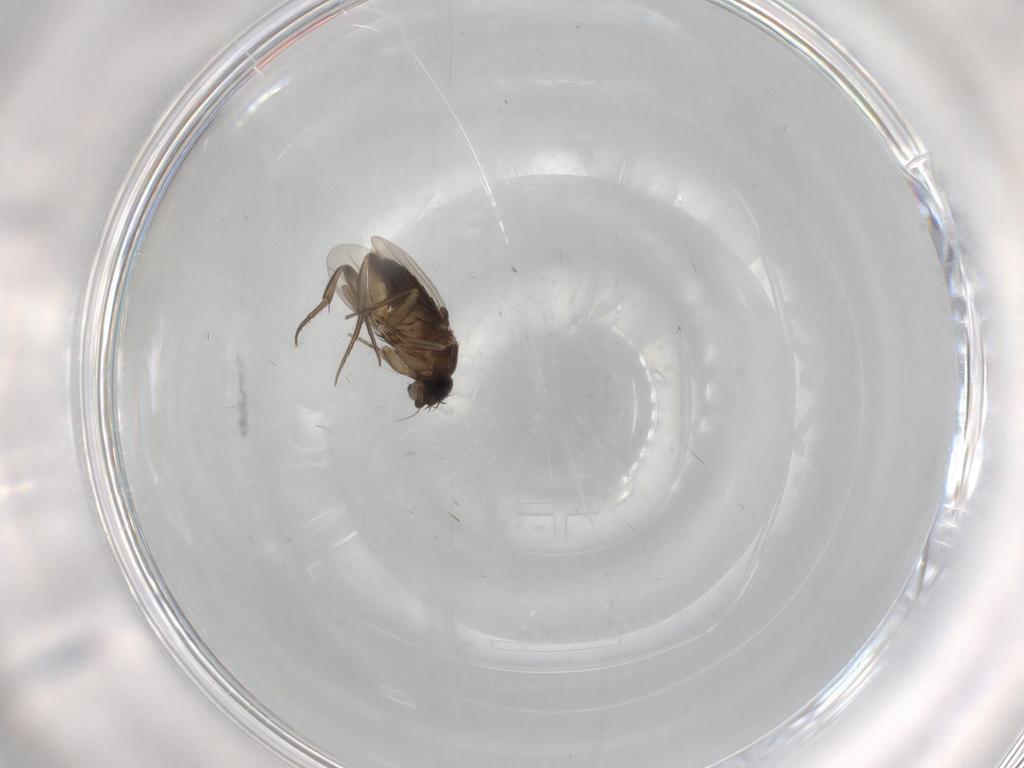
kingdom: Animalia
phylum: Arthropoda
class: Insecta
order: Diptera
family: Phoridae
